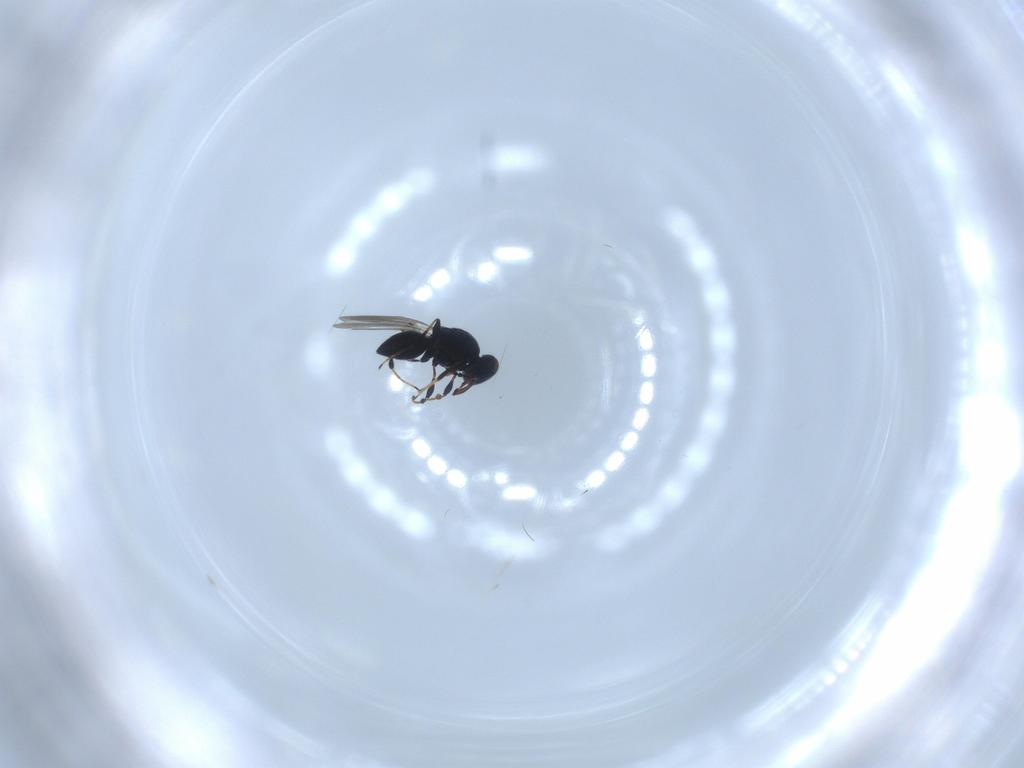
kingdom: Animalia
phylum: Arthropoda
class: Insecta
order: Hymenoptera
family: Platygastridae
